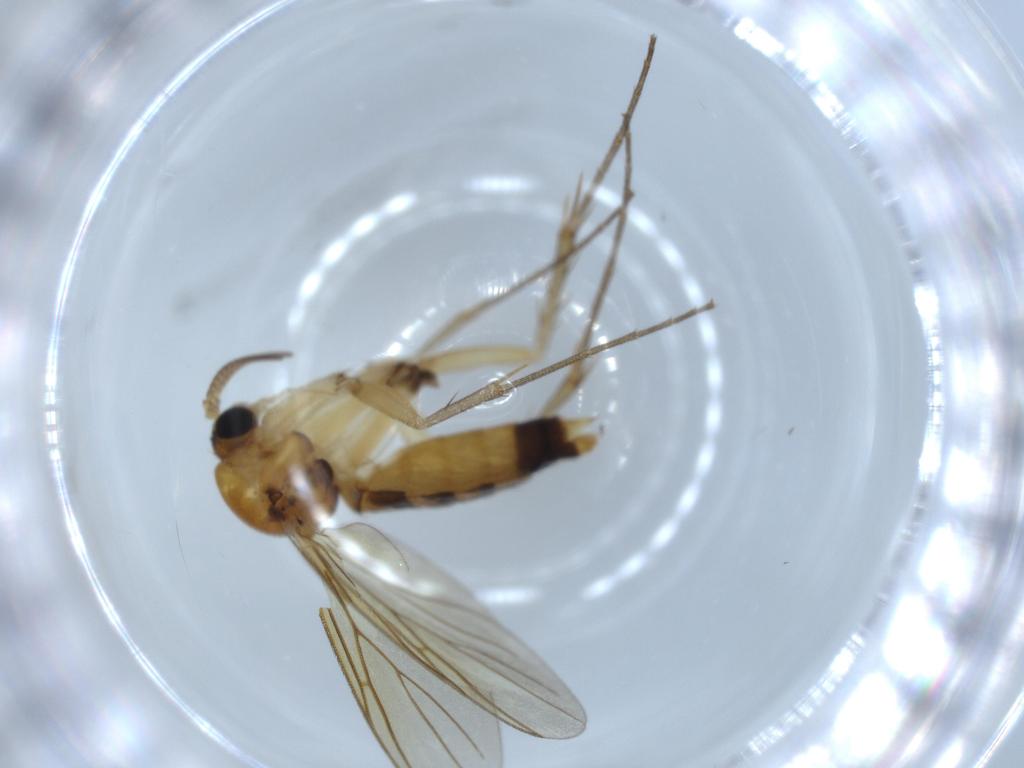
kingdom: Animalia
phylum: Arthropoda
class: Insecta
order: Diptera
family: Mycetophilidae
